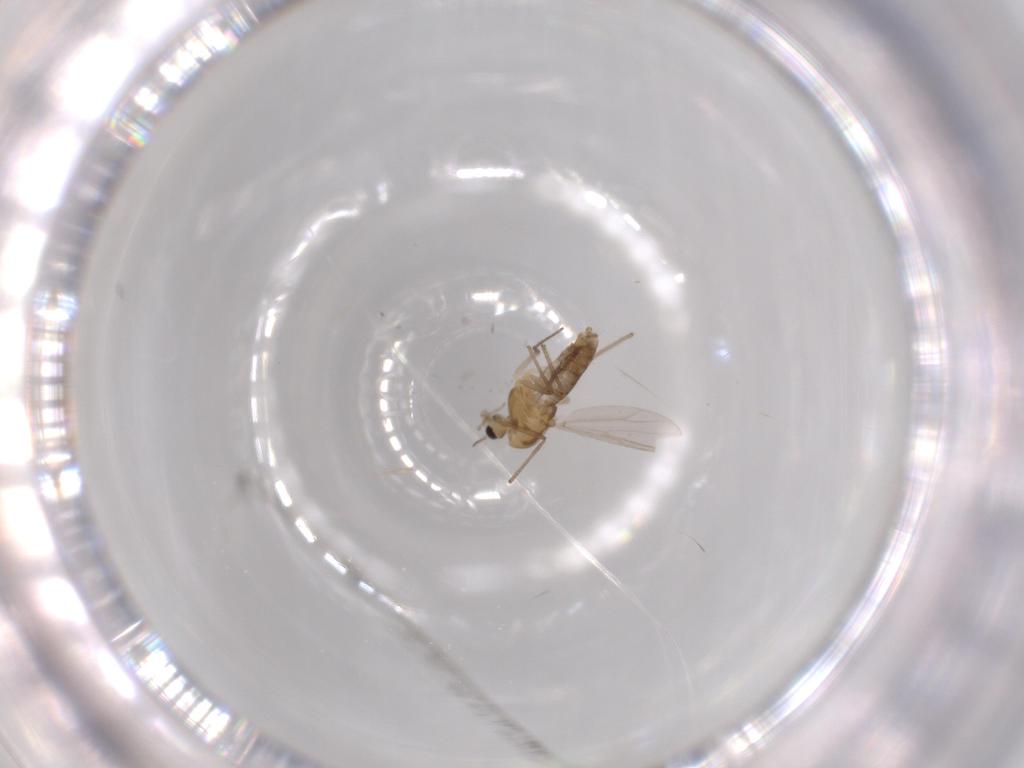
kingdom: Animalia
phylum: Arthropoda
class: Insecta
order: Diptera
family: Chironomidae
